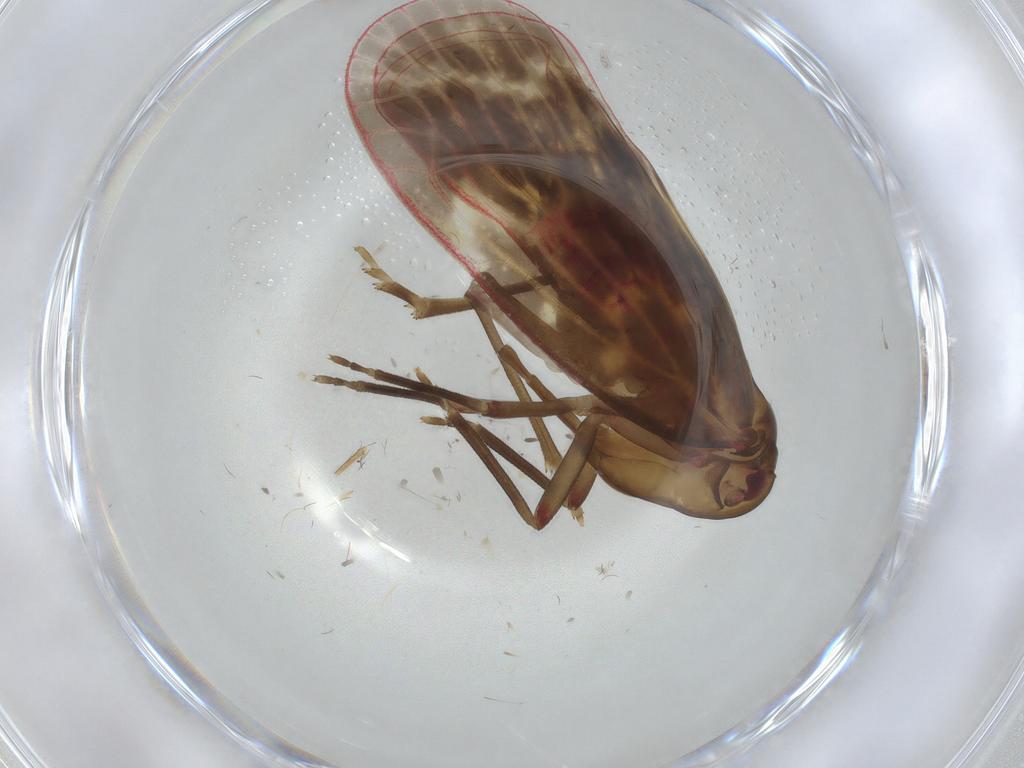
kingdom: Animalia
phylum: Arthropoda
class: Insecta
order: Hemiptera
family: Achilidae
